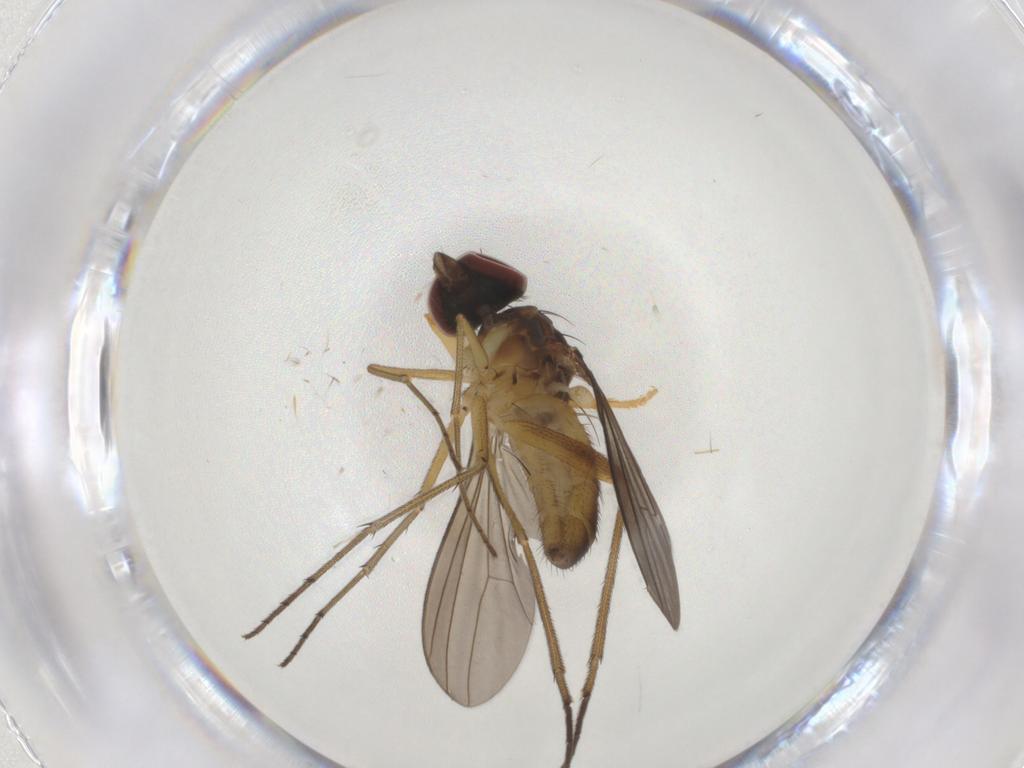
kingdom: Animalia
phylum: Arthropoda
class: Insecta
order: Diptera
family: Dolichopodidae
